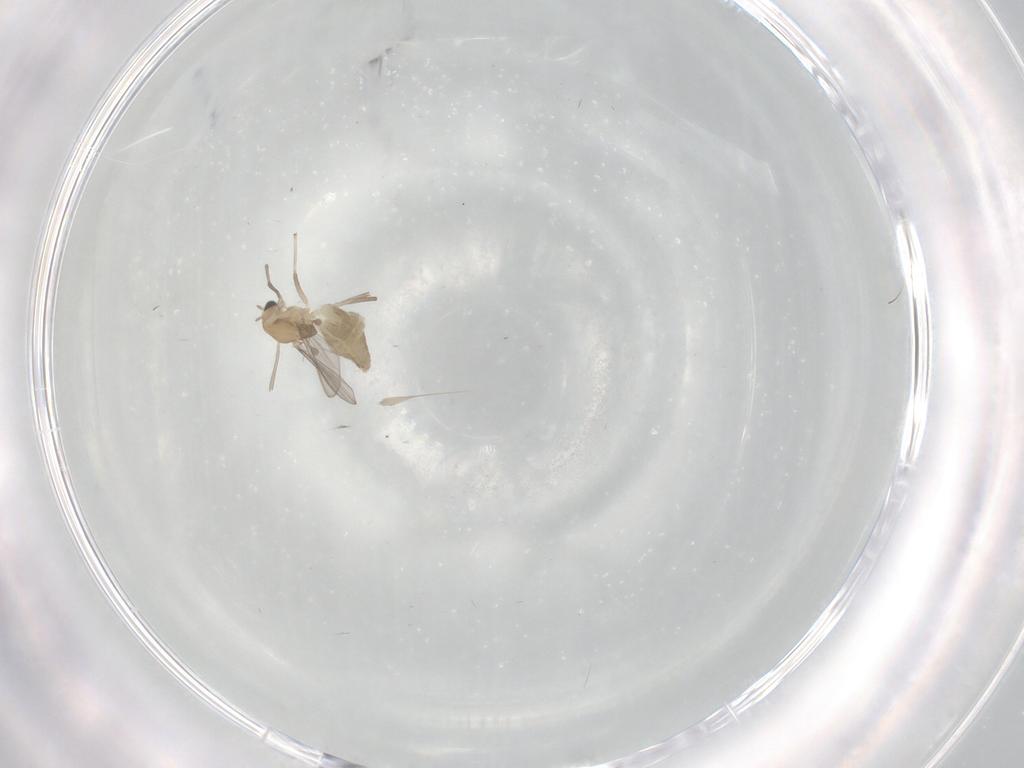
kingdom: Animalia
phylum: Arthropoda
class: Insecta
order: Diptera
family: Chironomidae
